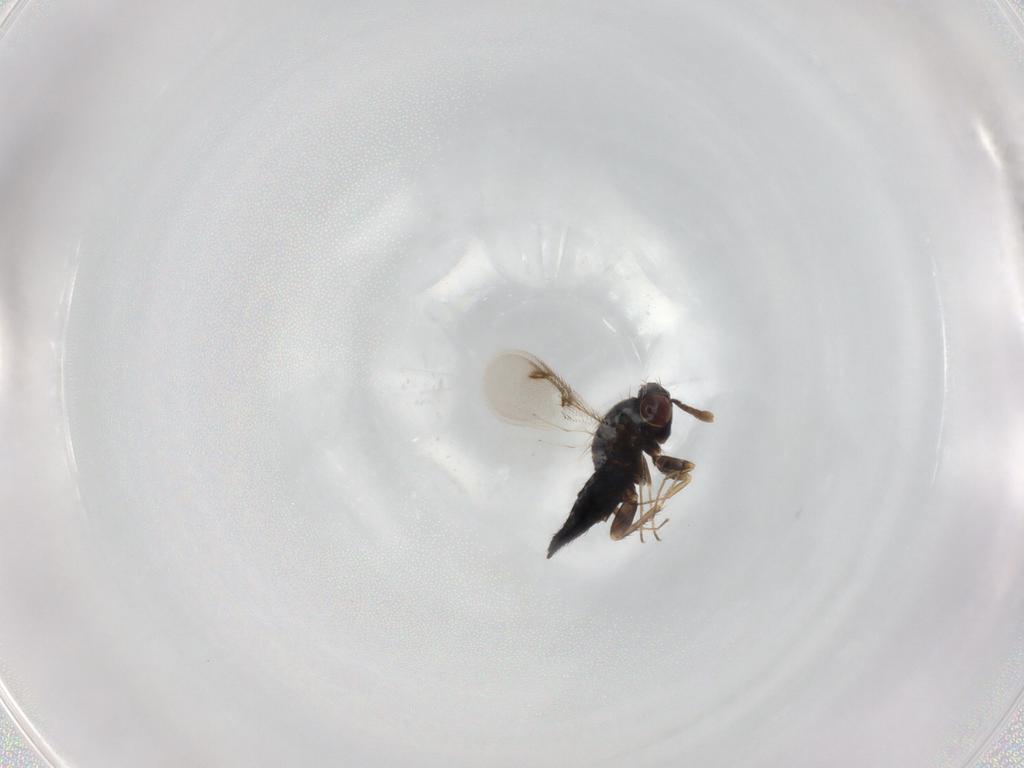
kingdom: Animalia
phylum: Arthropoda
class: Insecta
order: Hymenoptera
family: Pirenidae
